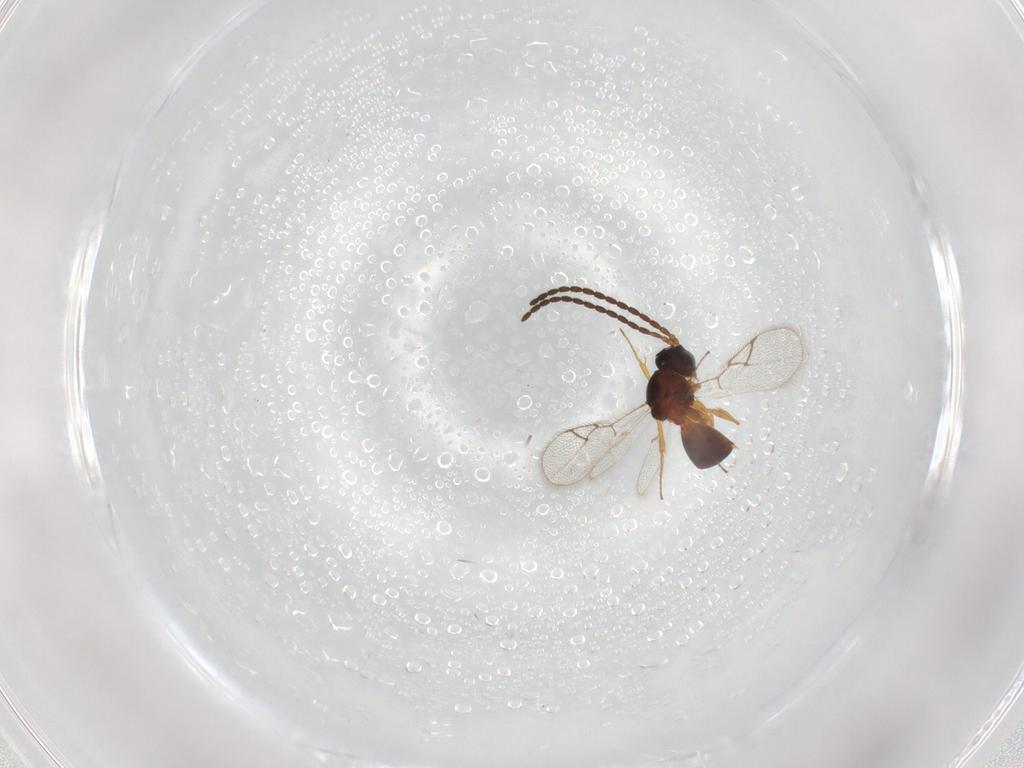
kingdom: Animalia
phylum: Arthropoda
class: Insecta
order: Hymenoptera
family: Figitidae
